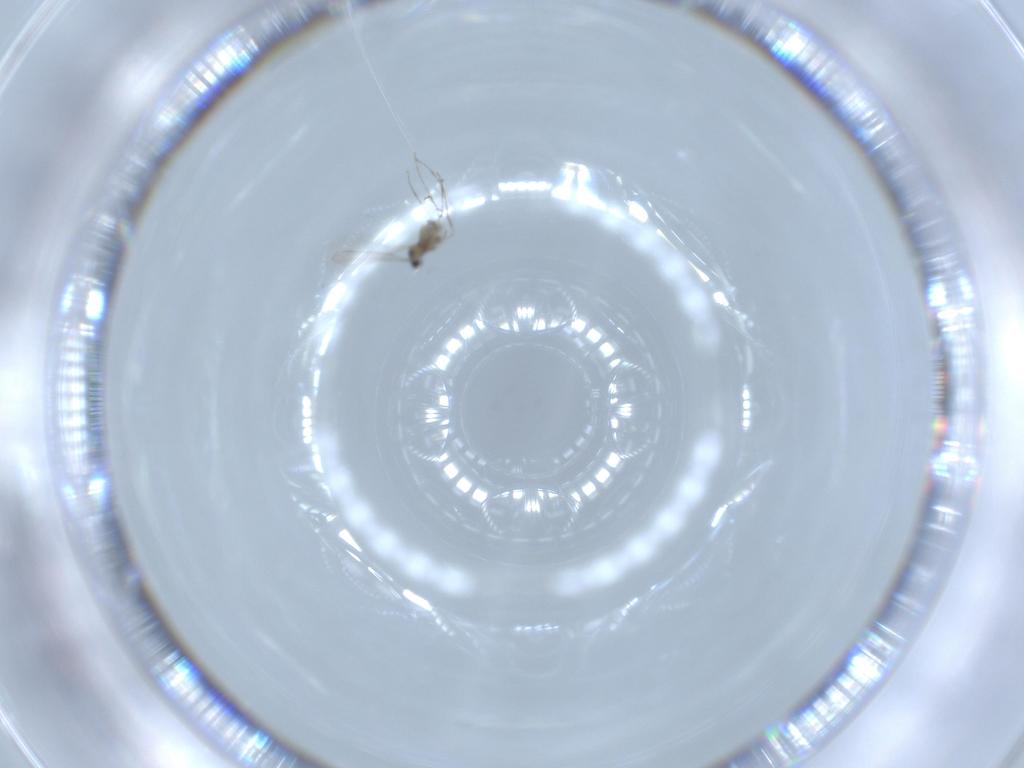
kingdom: Animalia
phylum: Arthropoda
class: Insecta
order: Diptera
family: Cecidomyiidae
